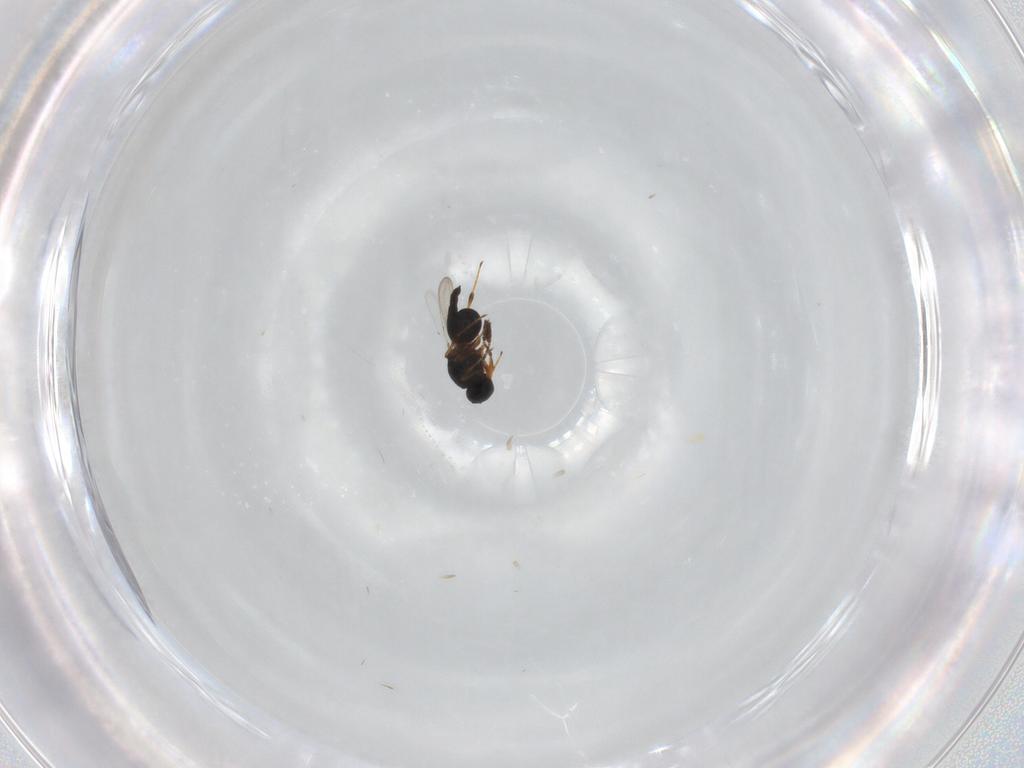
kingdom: Animalia
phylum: Arthropoda
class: Insecta
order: Hymenoptera
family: Platygastridae
